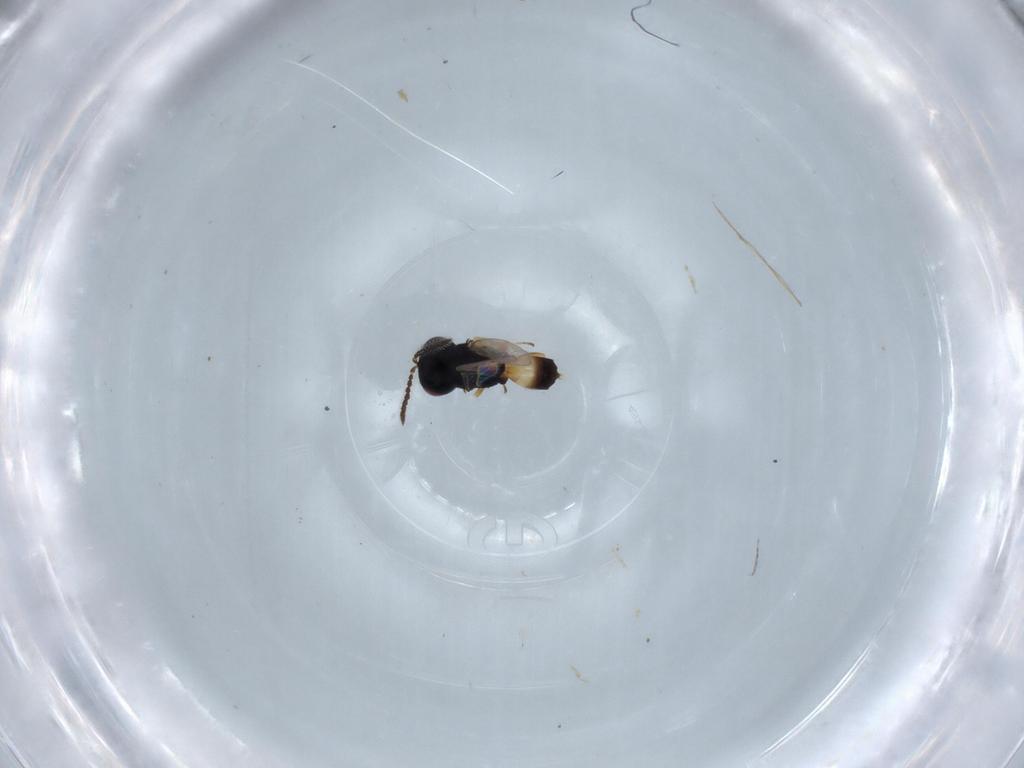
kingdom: Animalia
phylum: Arthropoda
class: Insecta
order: Hymenoptera
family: Pteromalidae
